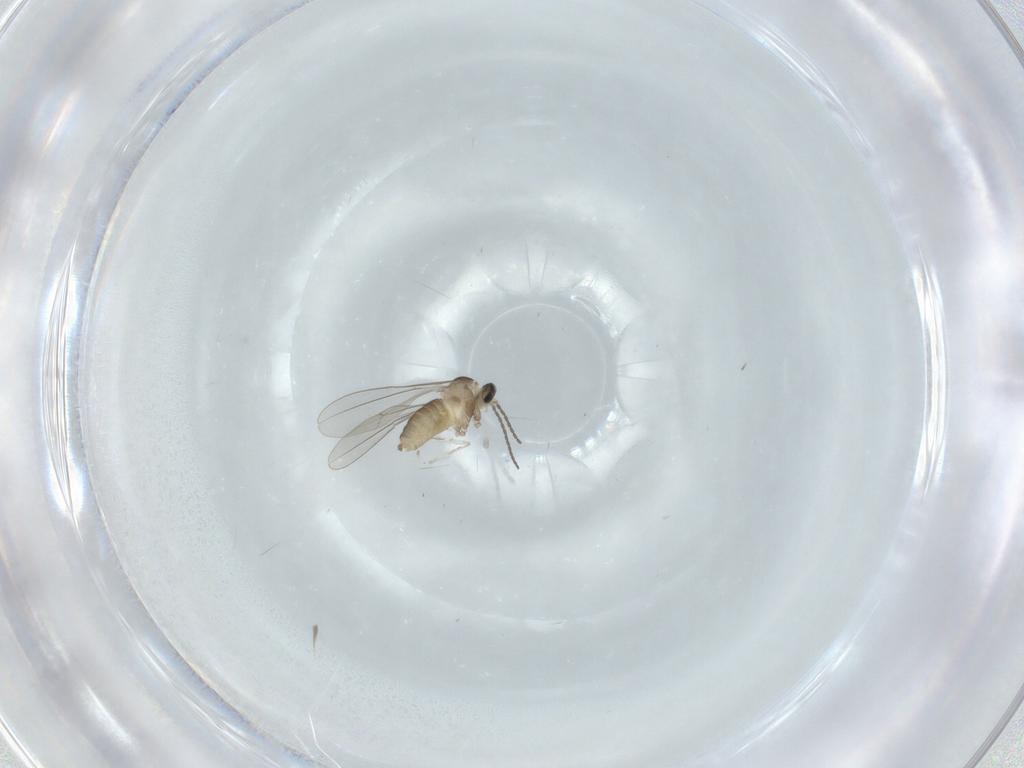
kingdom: Animalia
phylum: Arthropoda
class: Insecta
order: Diptera
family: Cecidomyiidae
